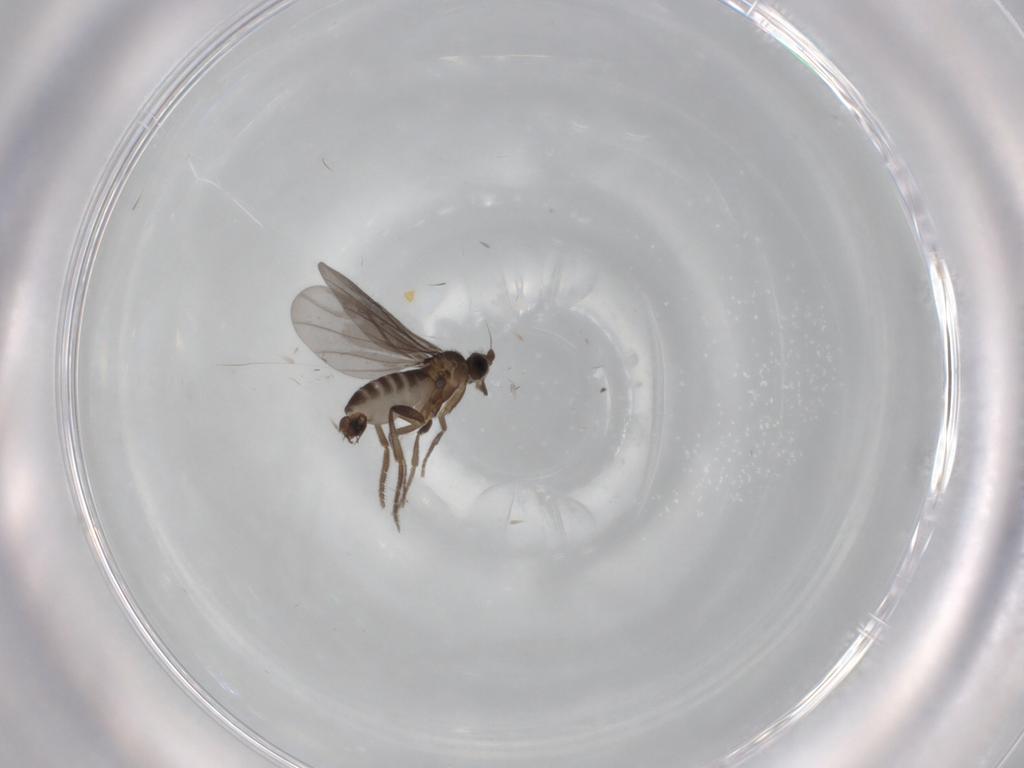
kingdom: Animalia
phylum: Arthropoda
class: Insecta
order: Diptera
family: Phoridae
